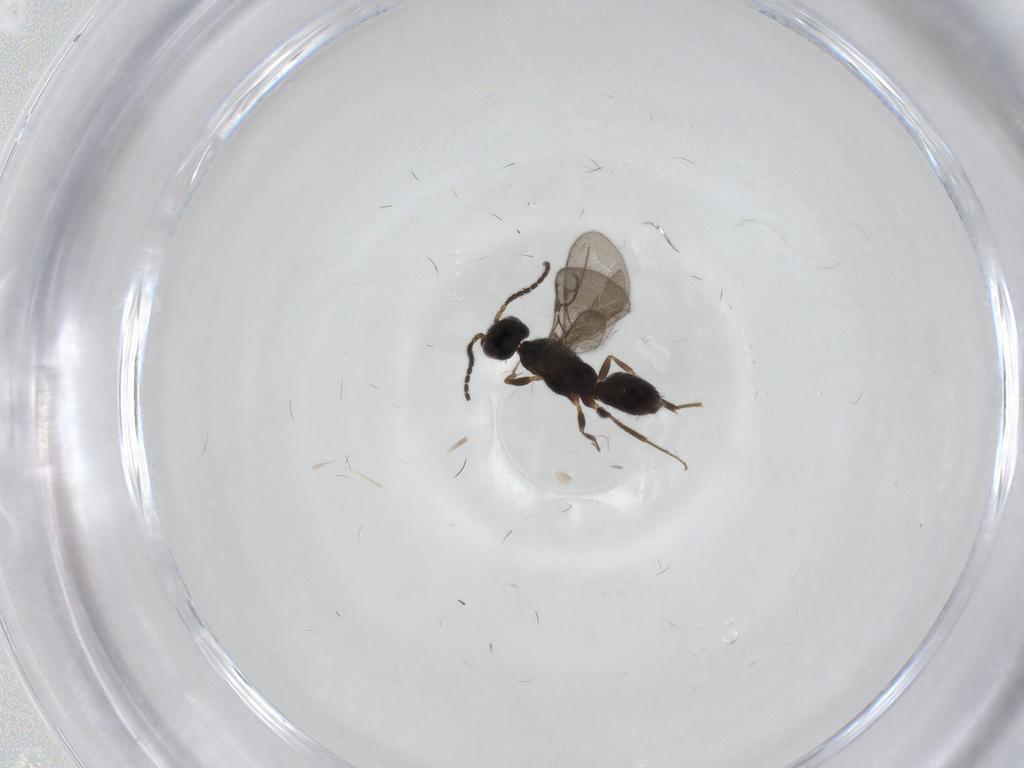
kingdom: Animalia
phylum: Arthropoda
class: Insecta
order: Hymenoptera
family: Bethylidae
